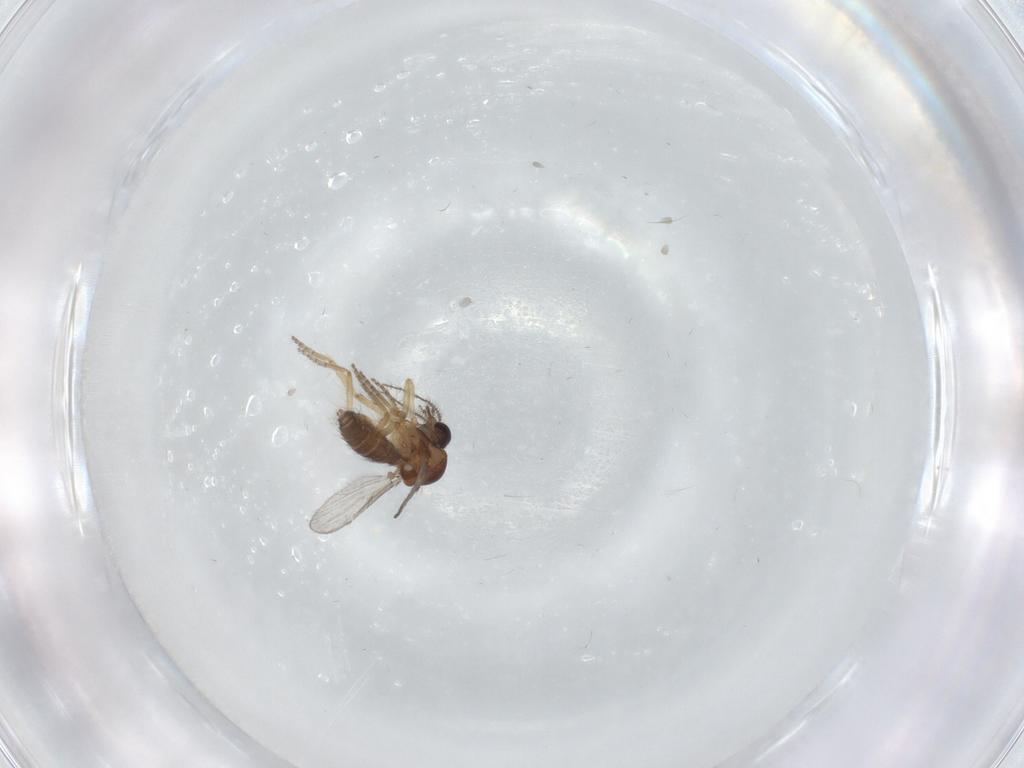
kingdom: Animalia
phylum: Arthropoda
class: Insecta
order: Diptera
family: Ceratopogonidae
